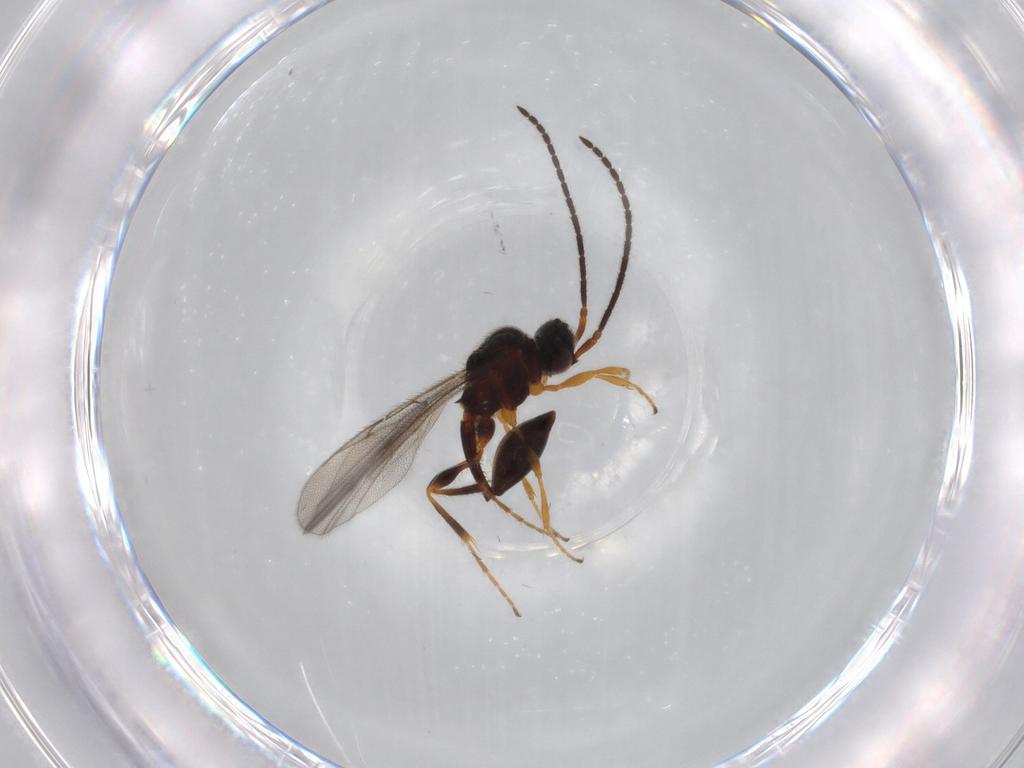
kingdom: Animalia
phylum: Arthropoda
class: Insecta
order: Hymenoptera
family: Diapriidae
